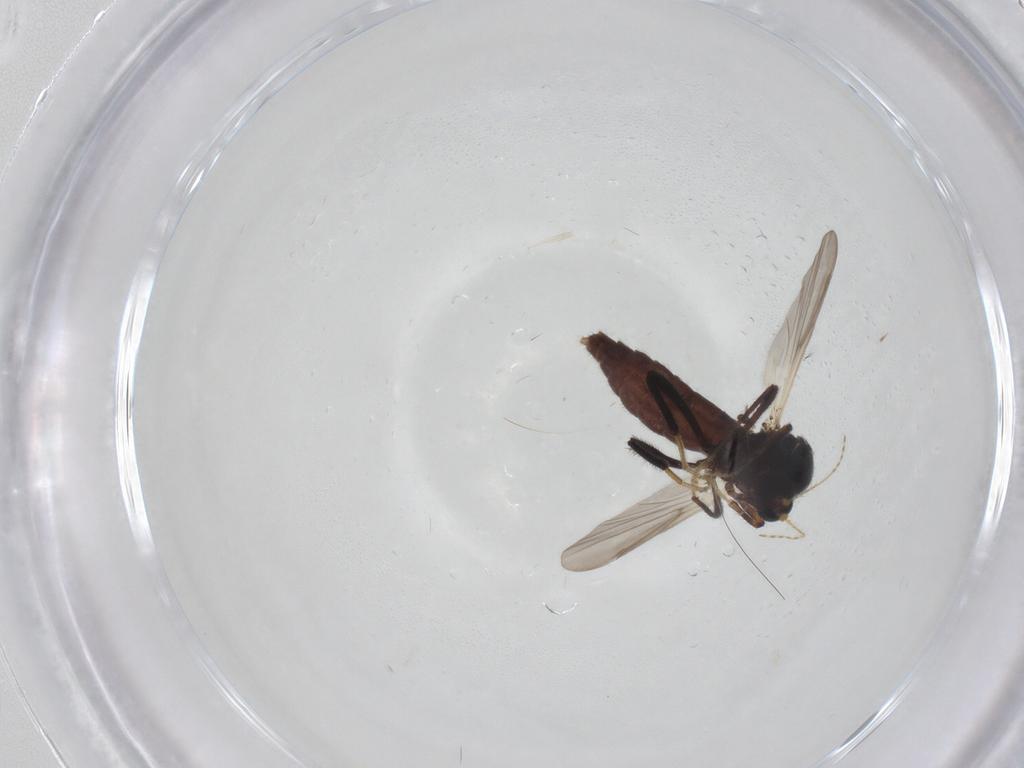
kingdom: Animalia
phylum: Arthropoda
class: Insecta
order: Diptera
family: Ceratopogonidae
